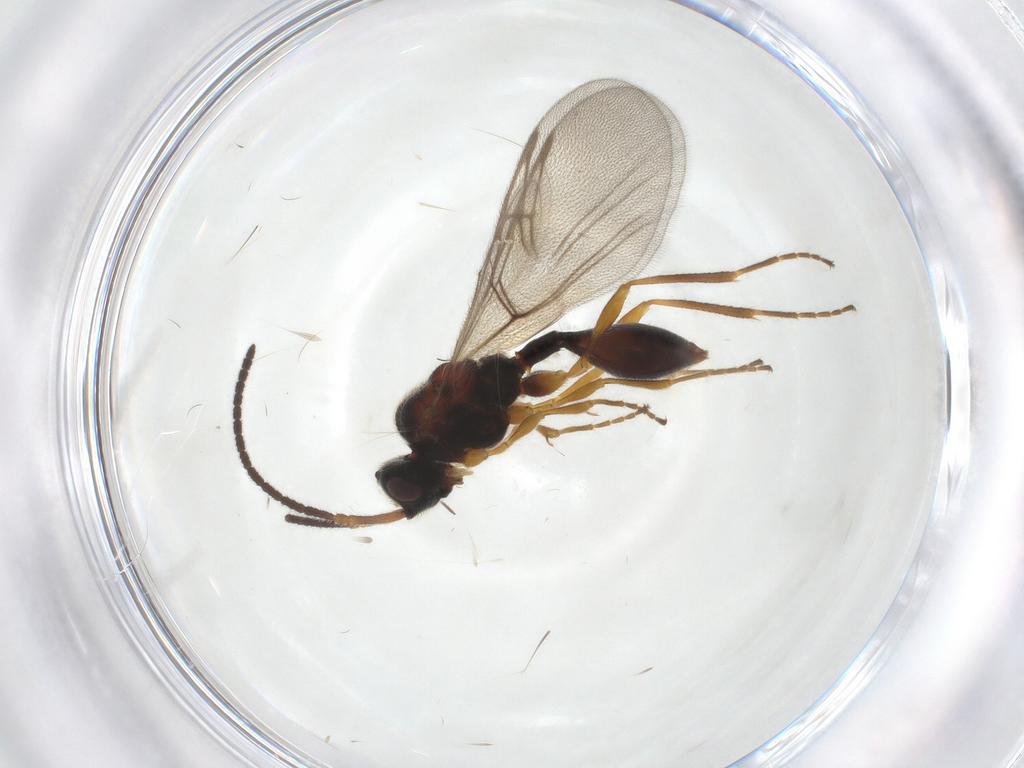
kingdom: Animalia
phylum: Arthropoda
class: Insecta
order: Hymenoptera
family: Diapriidae
